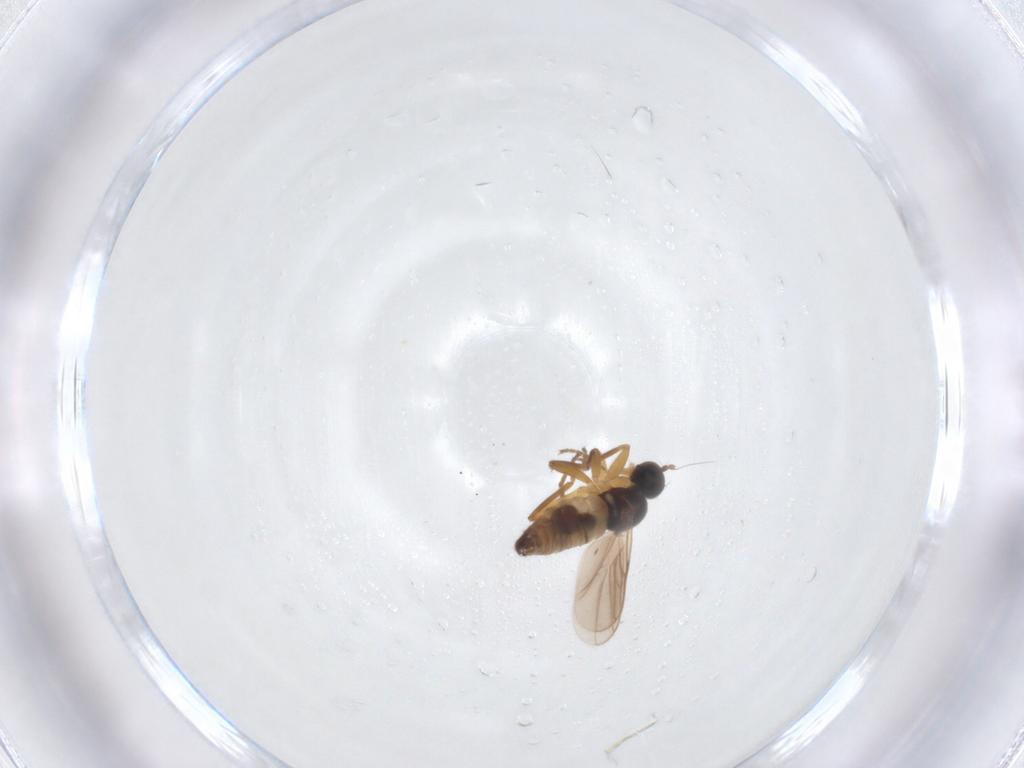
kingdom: Animalia
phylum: Arthropoda
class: Insecta
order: Diptera
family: Hybotidae
